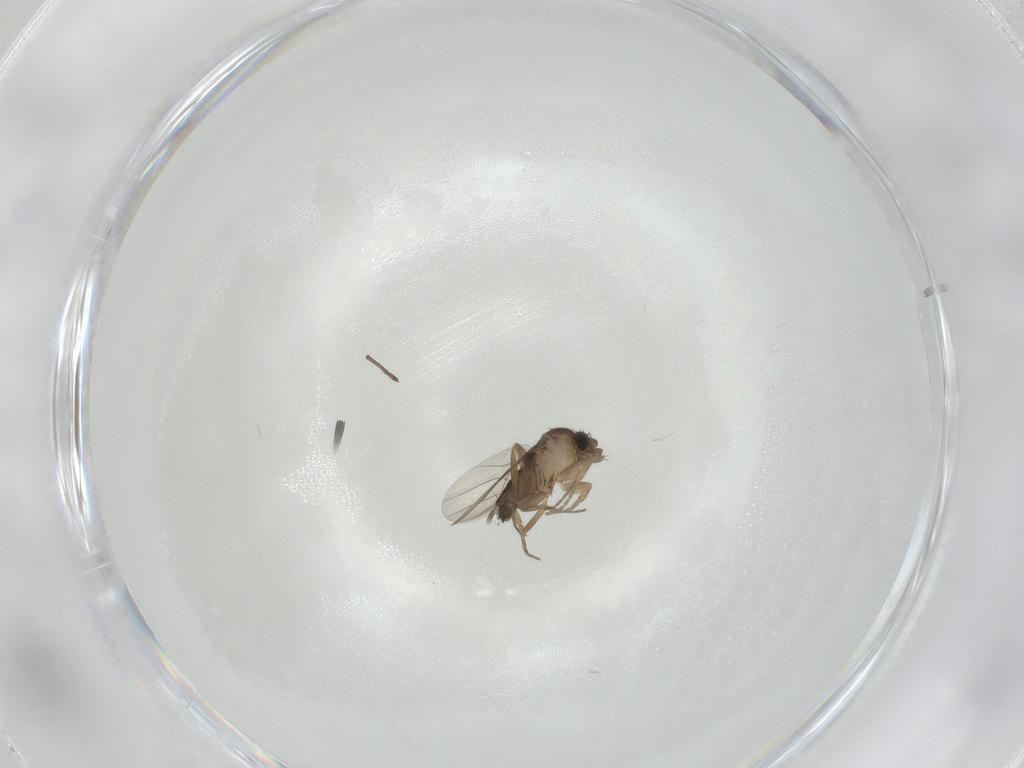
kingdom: Animalia
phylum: Arthropoda
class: Insecta
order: Diptera
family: Phoridae
